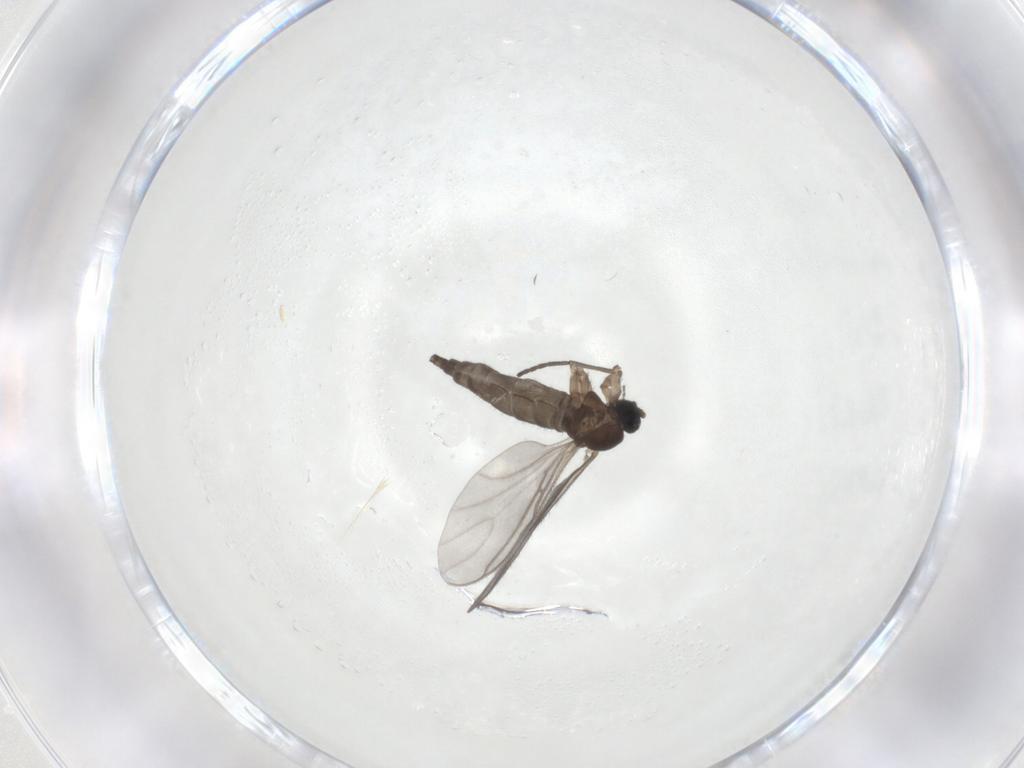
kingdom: Animalia
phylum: Arthropoda
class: Insecta
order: Diptera
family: Sciaridae
